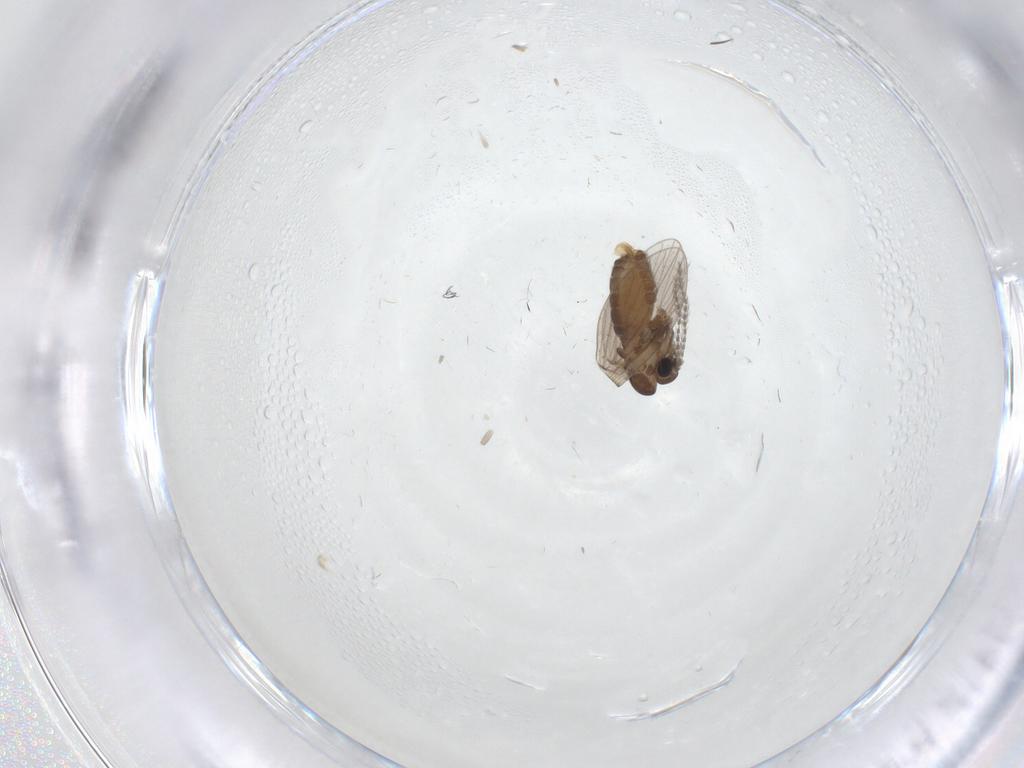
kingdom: Animalia
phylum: Arthropoda
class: Insecta
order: Diptera
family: Psychodidae
